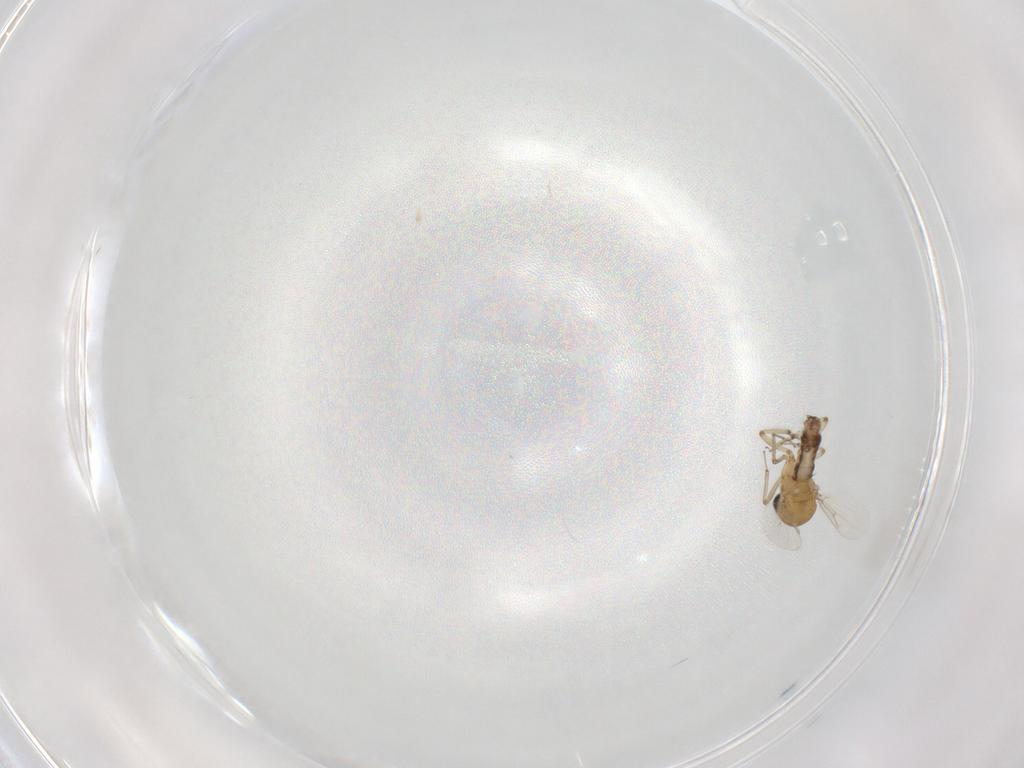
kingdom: Animalia
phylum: Arthropoda
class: Insecta
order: Diptera
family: Ceratopogonidae
